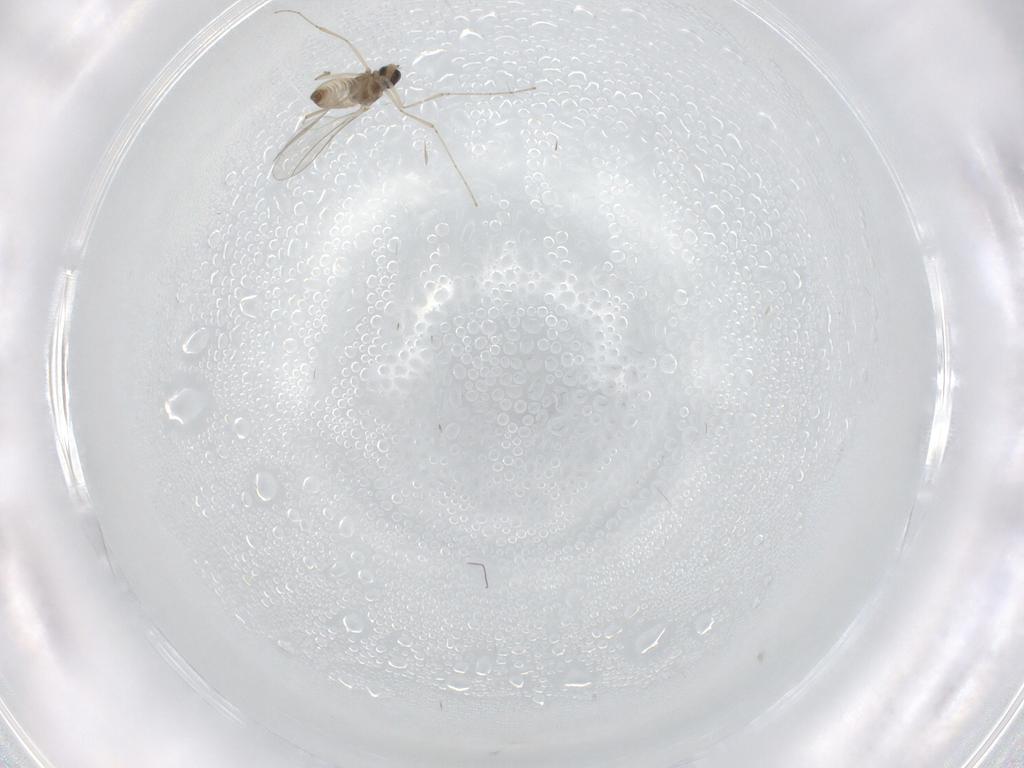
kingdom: Animalia
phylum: Arthropoda
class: Insecta
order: Diptera
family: Cecidomyiidae
